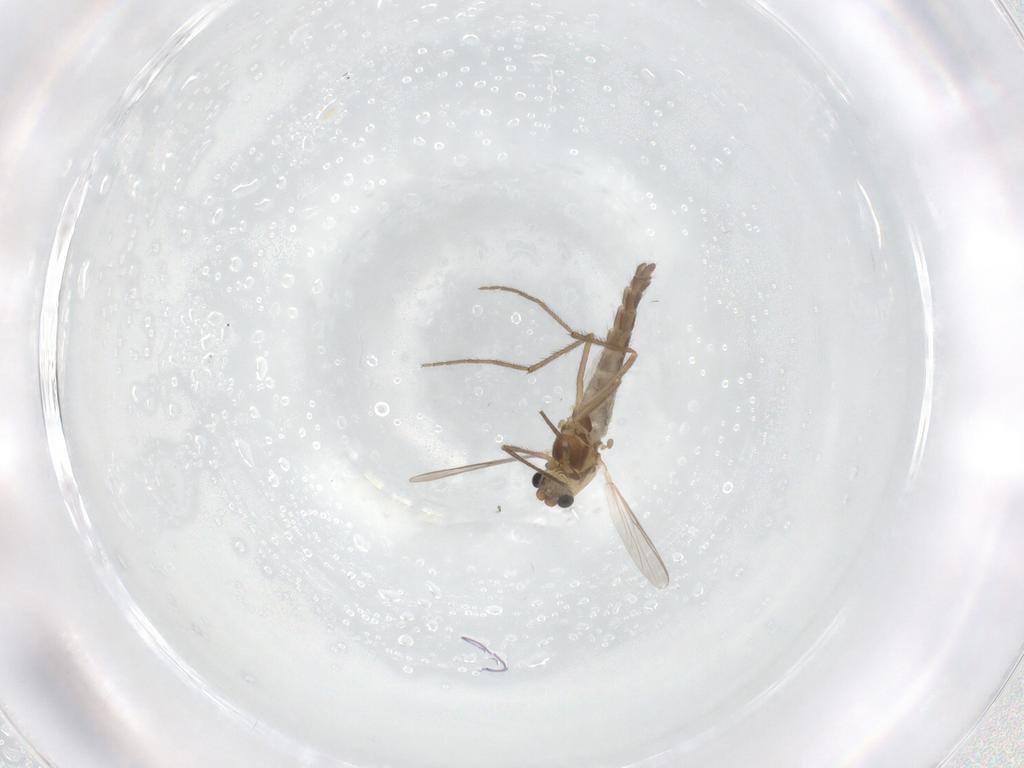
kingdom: Animalia
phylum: Arthropoda
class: Insecta
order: Diptera
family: Chironomidae
